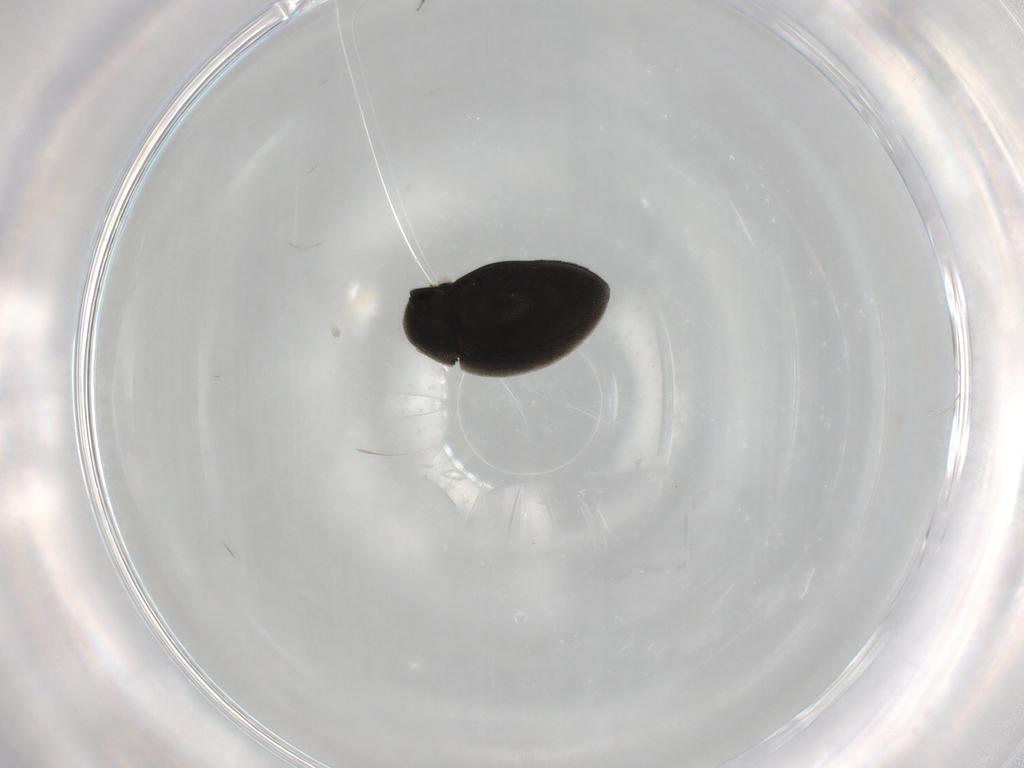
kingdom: Animalia
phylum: Arthropoda
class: Insecta
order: Coleoptera
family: Limnichidae
